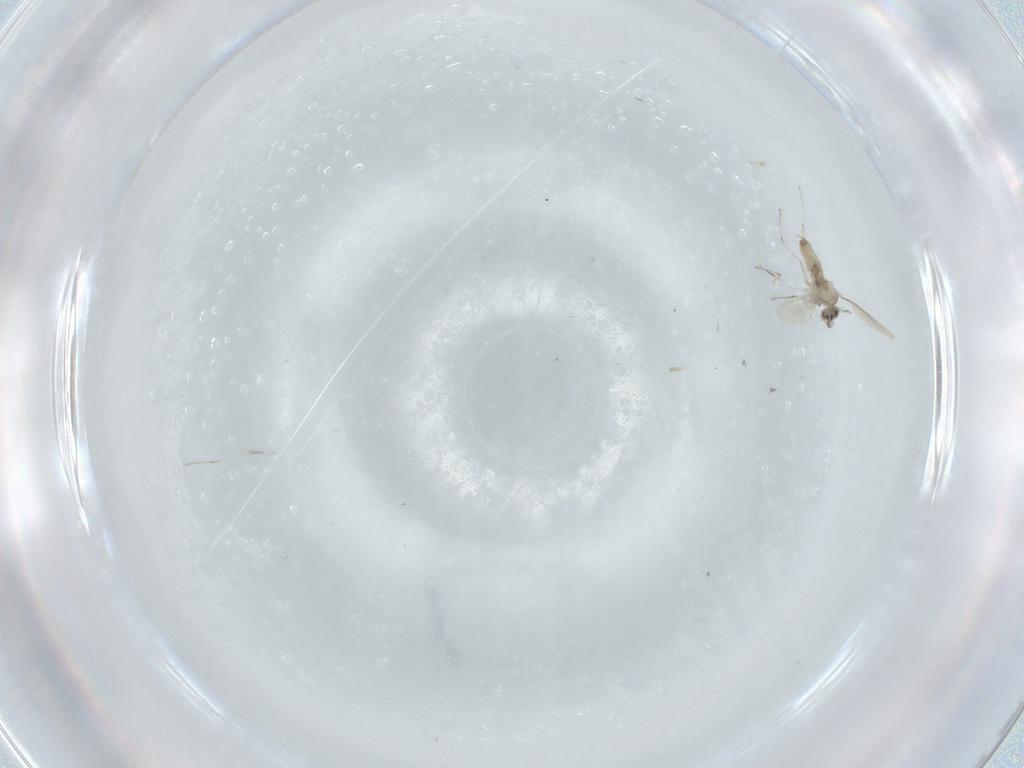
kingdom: Animalia
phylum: Arthropoda
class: Insecta
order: Diptera
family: Cecidomyiidae
